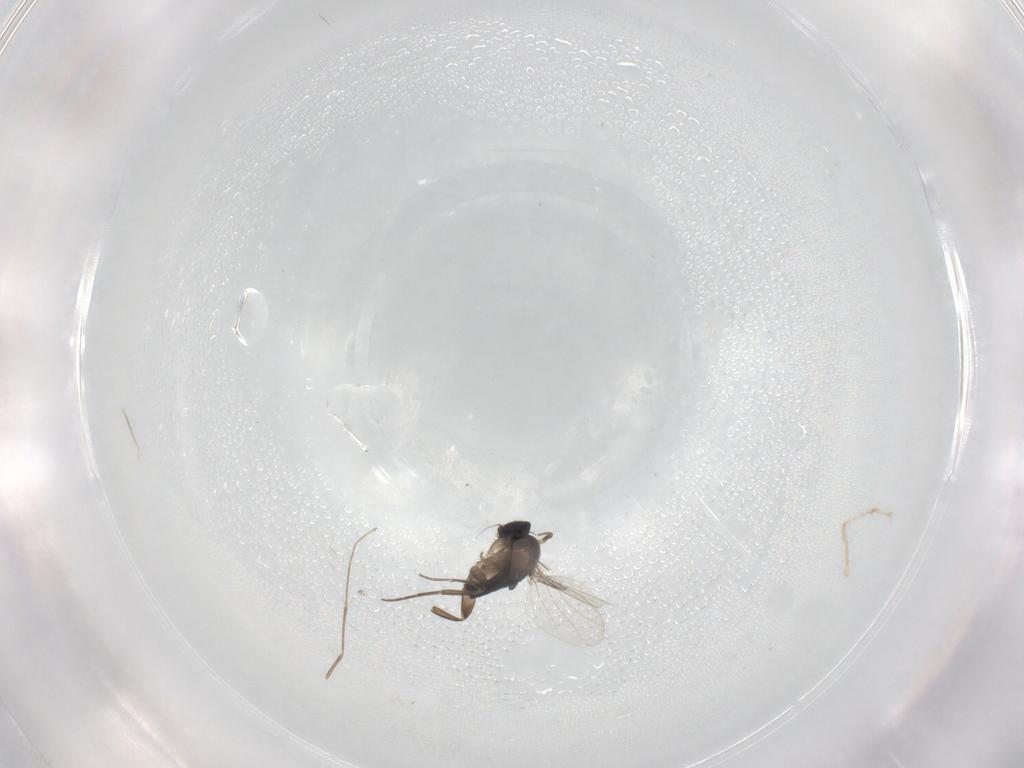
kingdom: Animalia
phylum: Arthropoda
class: Insecta
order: Diptera
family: Phoridae
